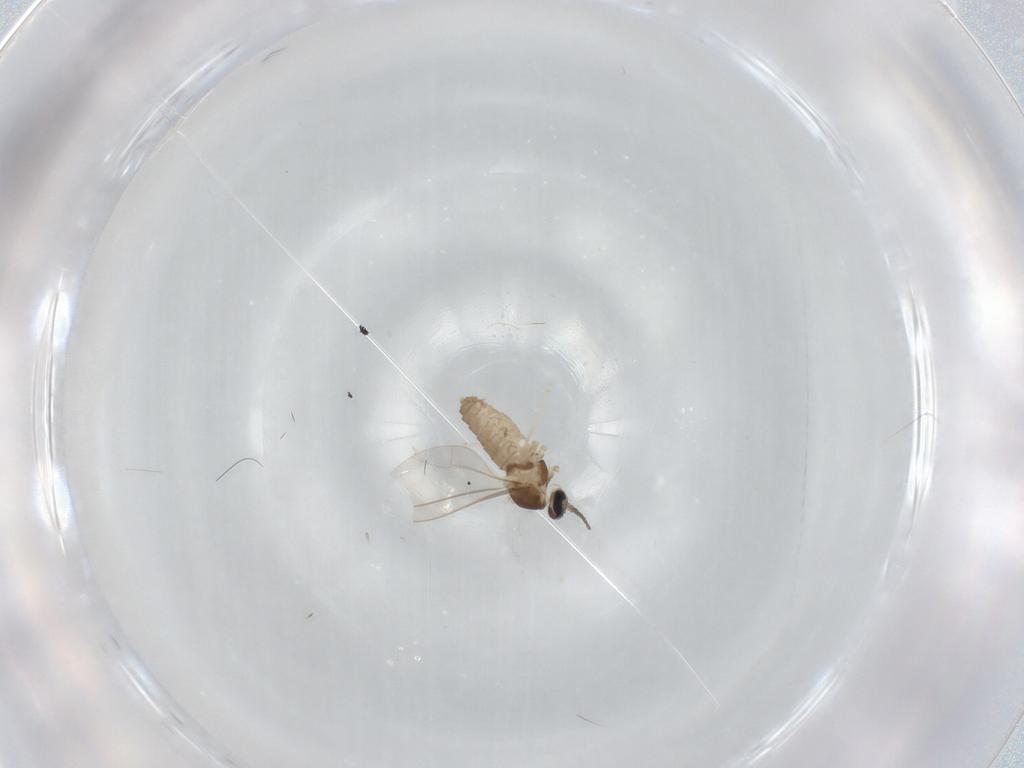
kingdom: Animalia
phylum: Arthropoda
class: Insecta
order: Diptera
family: Cecidomyiidae
